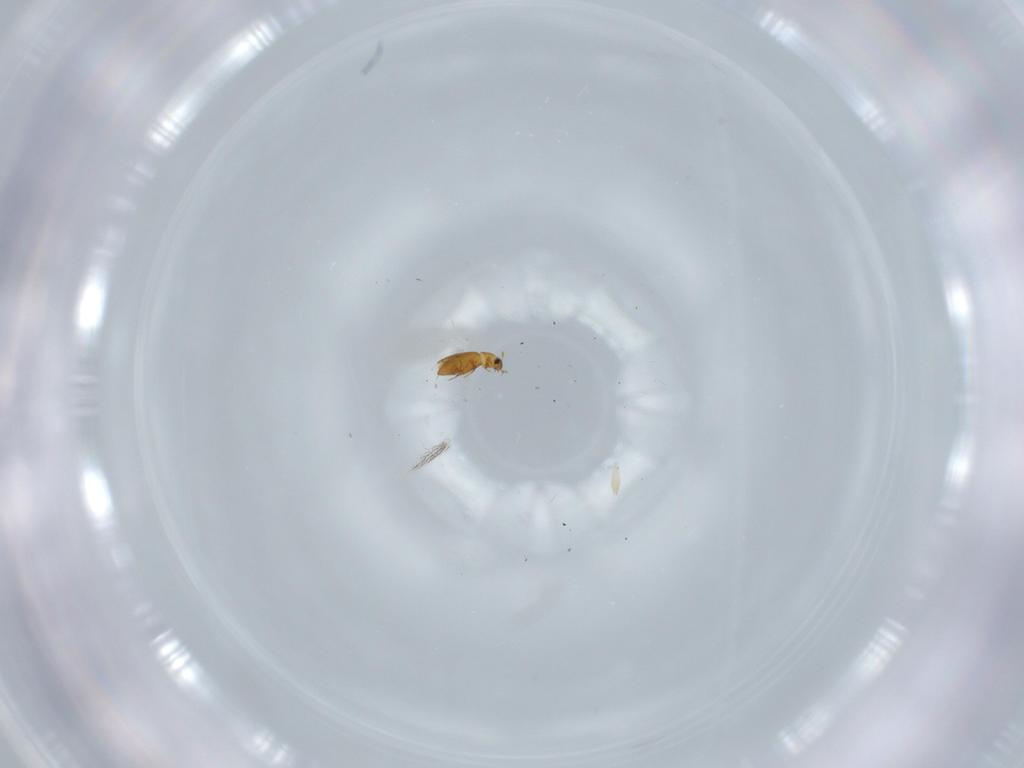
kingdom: Animalia
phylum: Arthropoda
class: Insecta
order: Coleoptera
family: Ptiliidae
